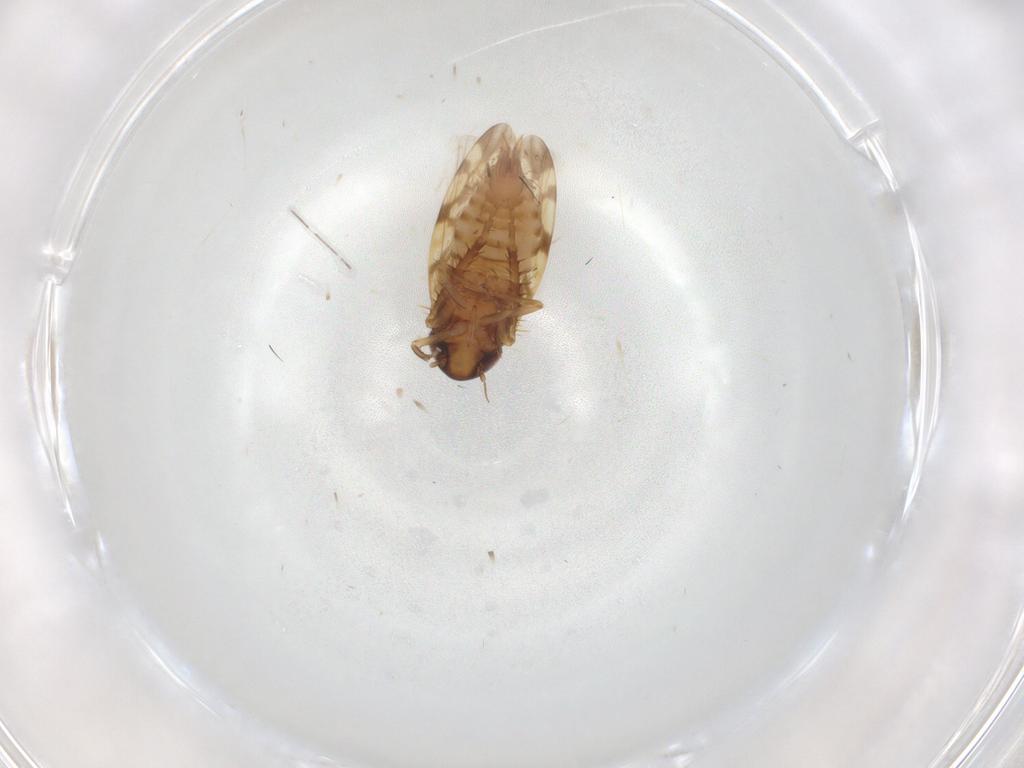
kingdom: Animalia
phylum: Arthropoda
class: Insecta
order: Hemiptera
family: Cicadellidae
